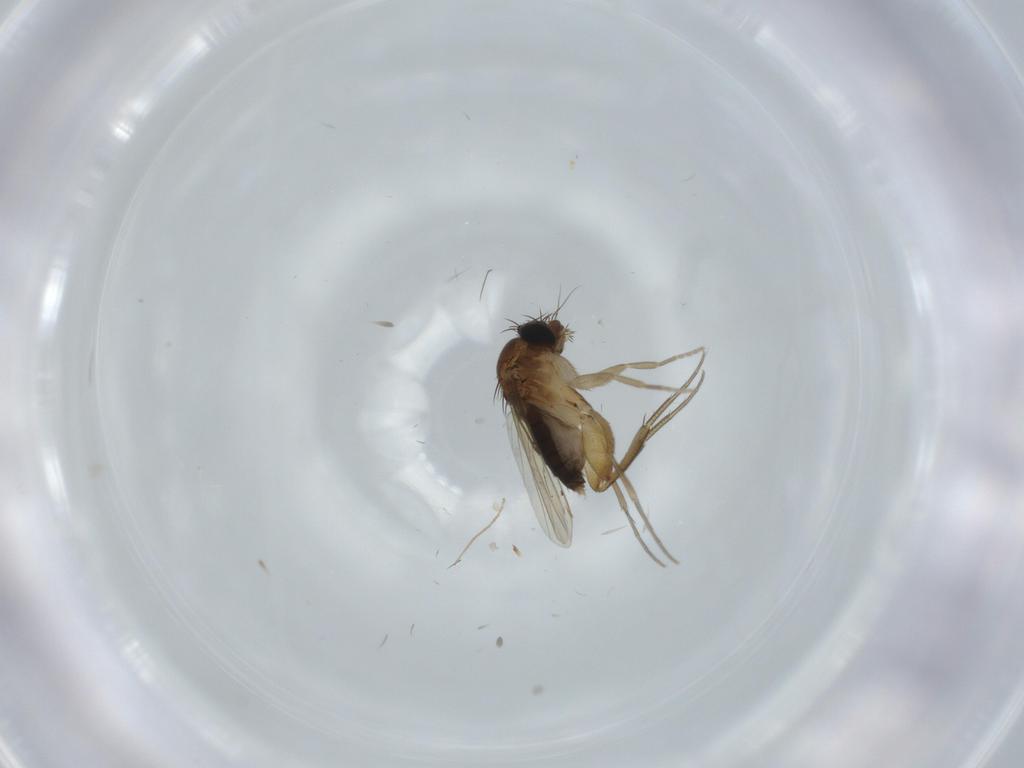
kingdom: Animalia
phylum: Arthropoda
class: Insecta
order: Diptera
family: Phoridae
